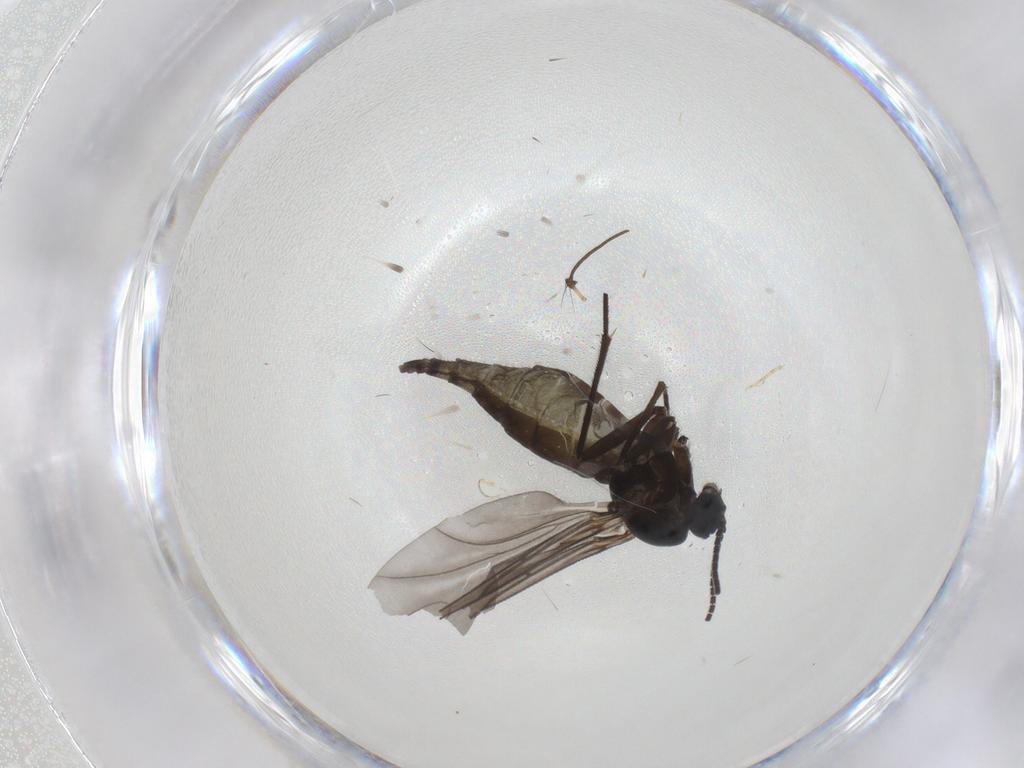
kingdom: Animalia
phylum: Arthropoda
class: Insecta
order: Diptera
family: Sciaridae
